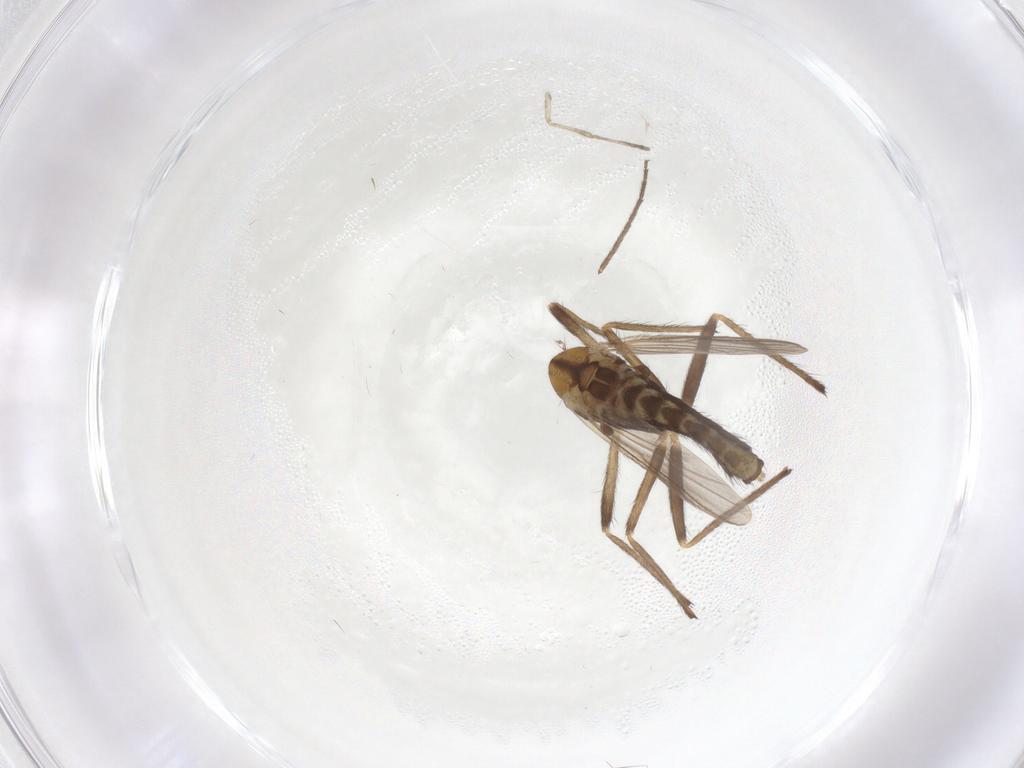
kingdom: Animalia
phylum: Arthropoda
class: Insecta
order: Diptera
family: Chironomidae
